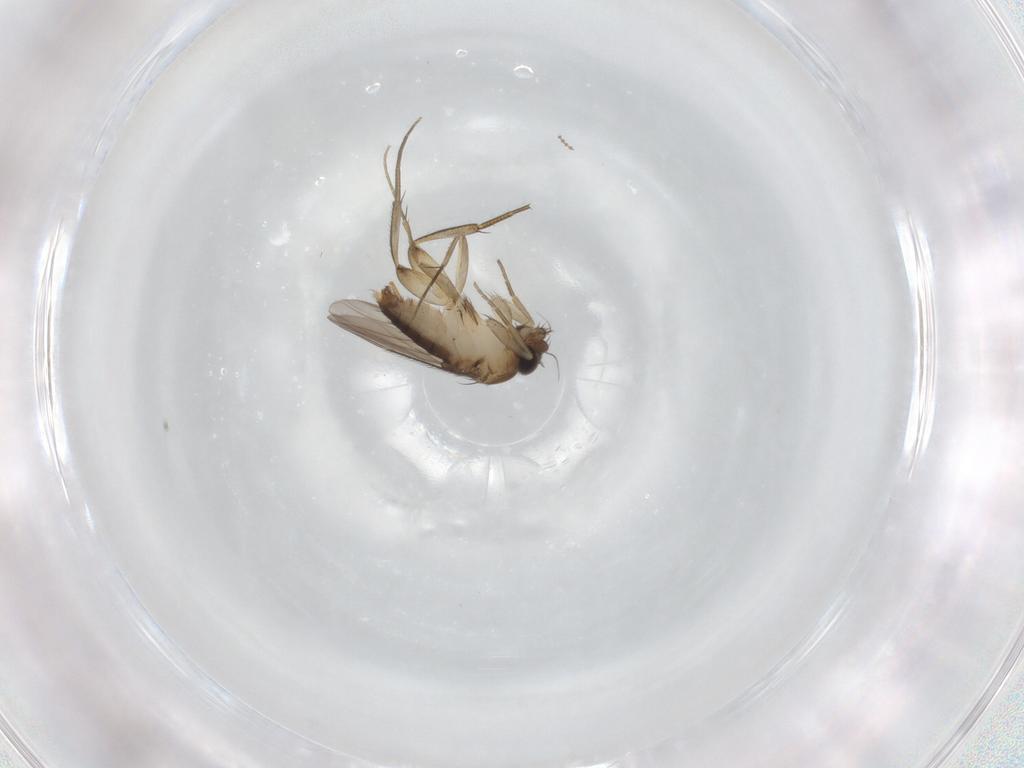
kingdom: Animalia
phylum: Arthropoda
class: Insecta
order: Diptera
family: Phoridae
